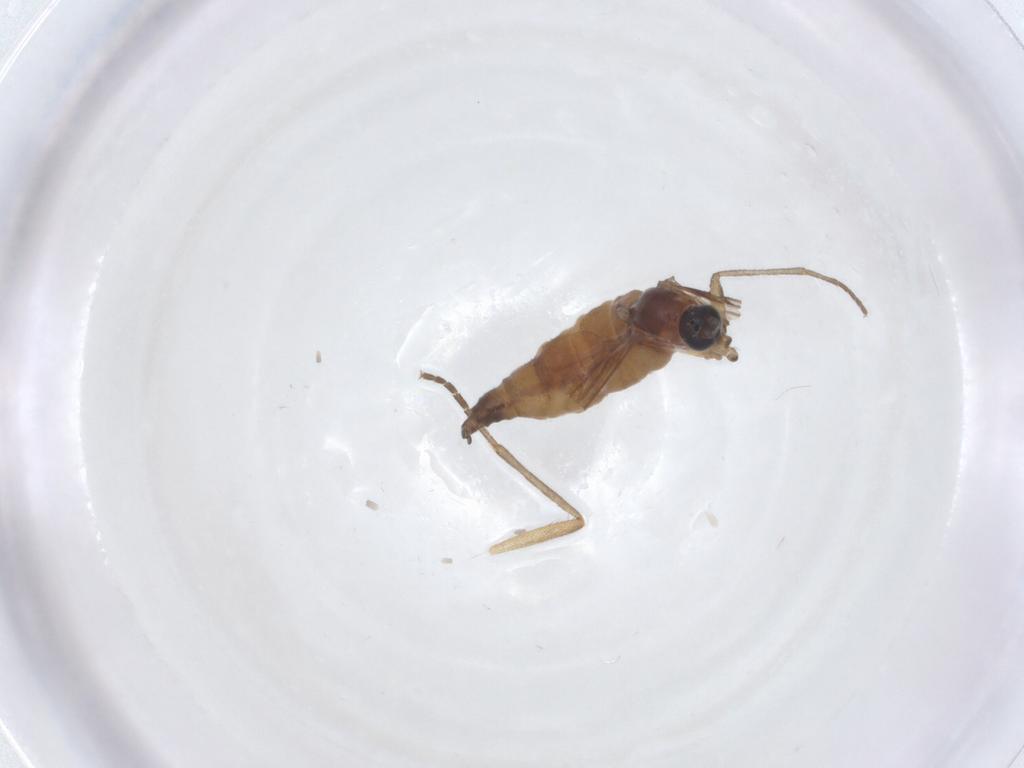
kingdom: Animalia
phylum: Arthropoda
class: Insecta
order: Diptera
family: Sciaridae
